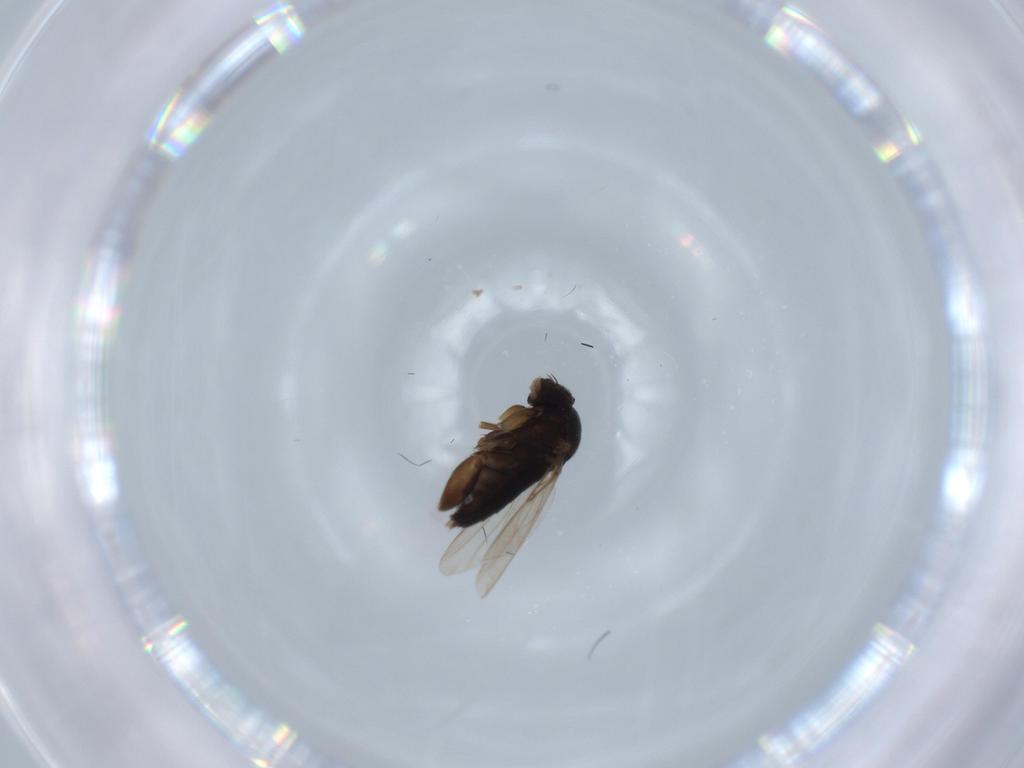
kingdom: Animalia
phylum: Arthropoda
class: Insecta
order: Diptera
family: Phoridae
